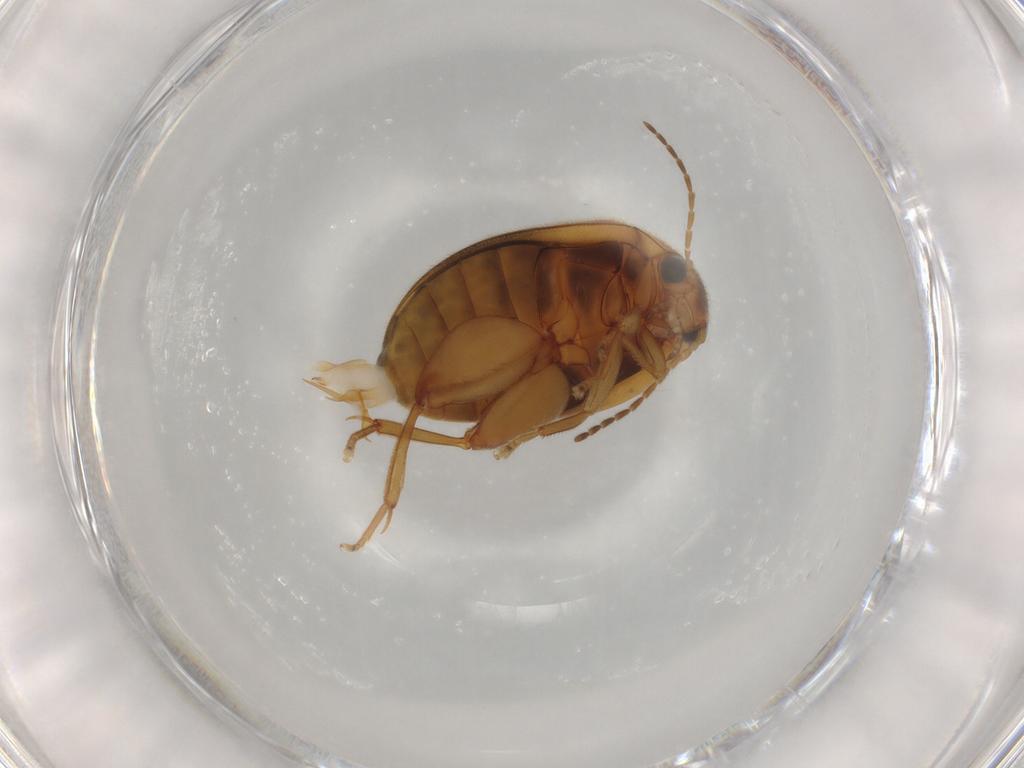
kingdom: Animalia
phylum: Arthropoda
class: Insecta
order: Coleoptera
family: Scirtidae
